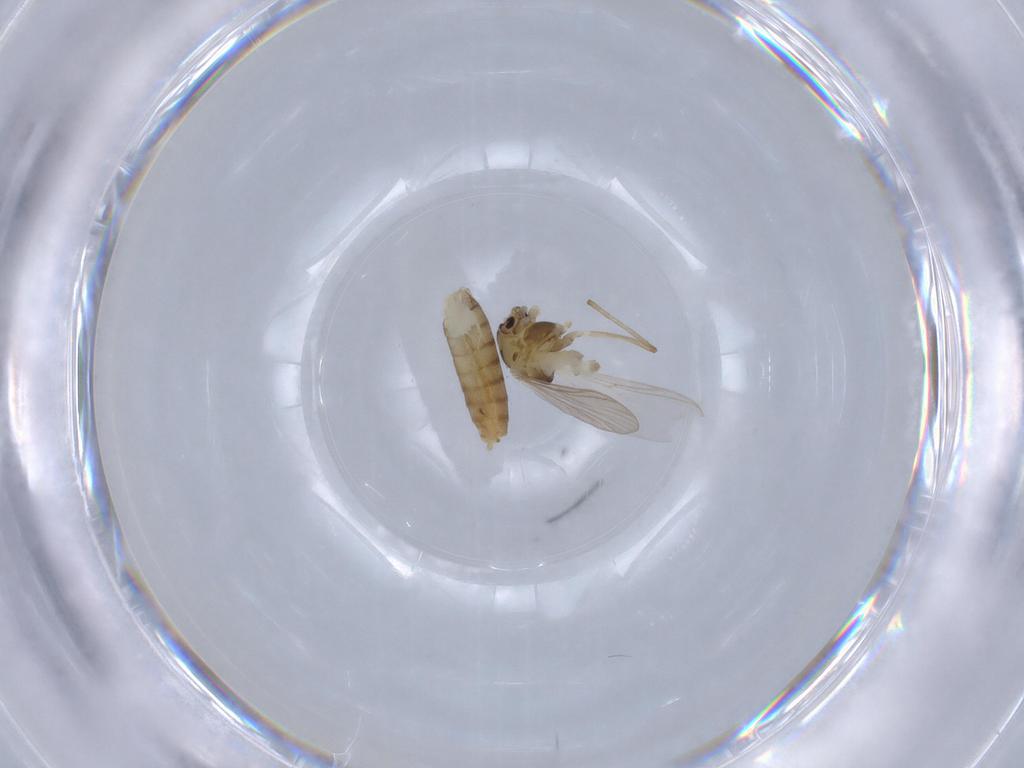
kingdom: Animalia
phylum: Arthropoda
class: Insecta
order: Diptera
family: Chironomidae
